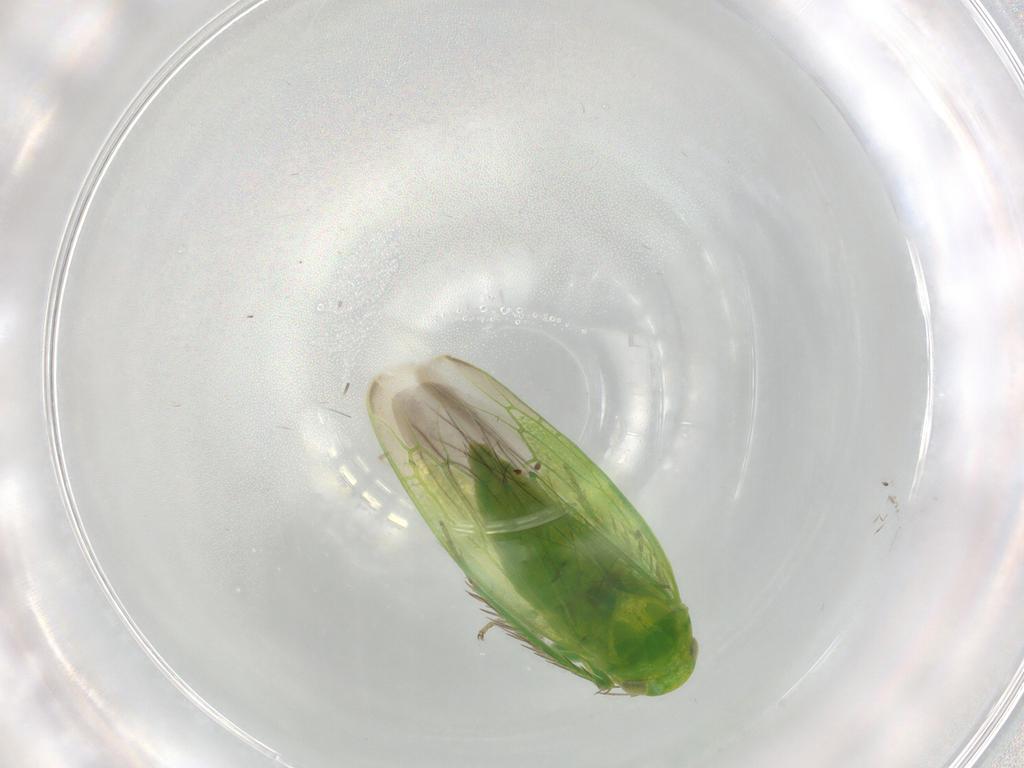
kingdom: Animalia
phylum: Arthropoda
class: Insecta
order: Hemiptera
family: Cicadellidae
